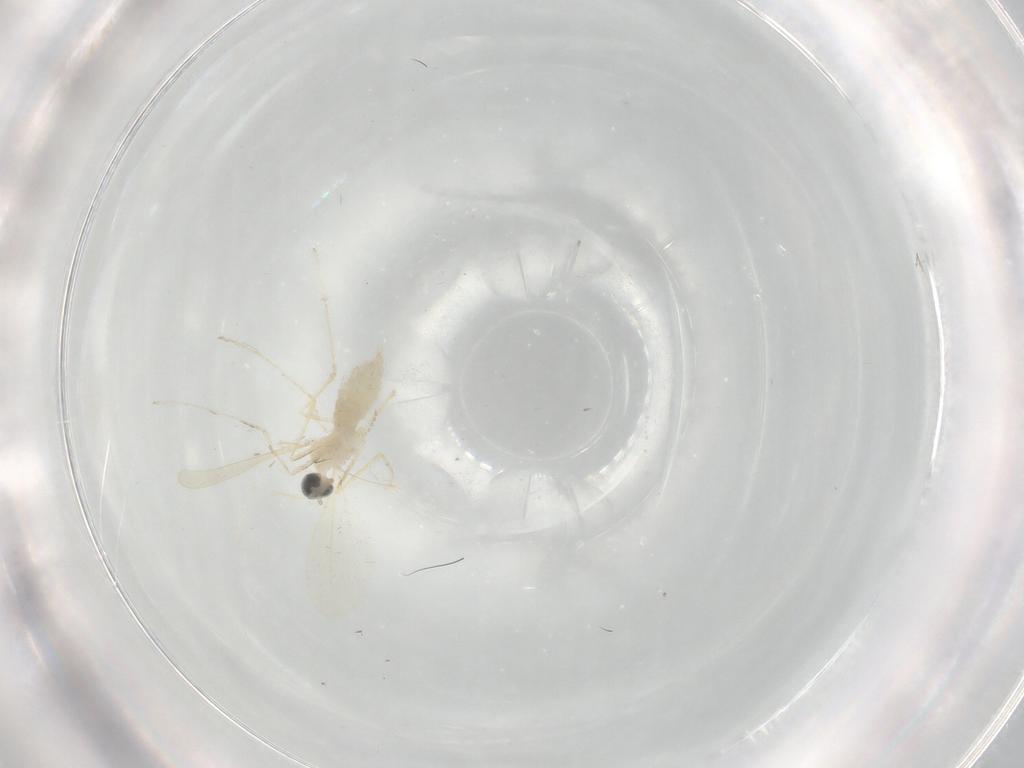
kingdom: Animalia
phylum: Arthropoda
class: Insecta
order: Diptera
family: Cecidomyiidae
